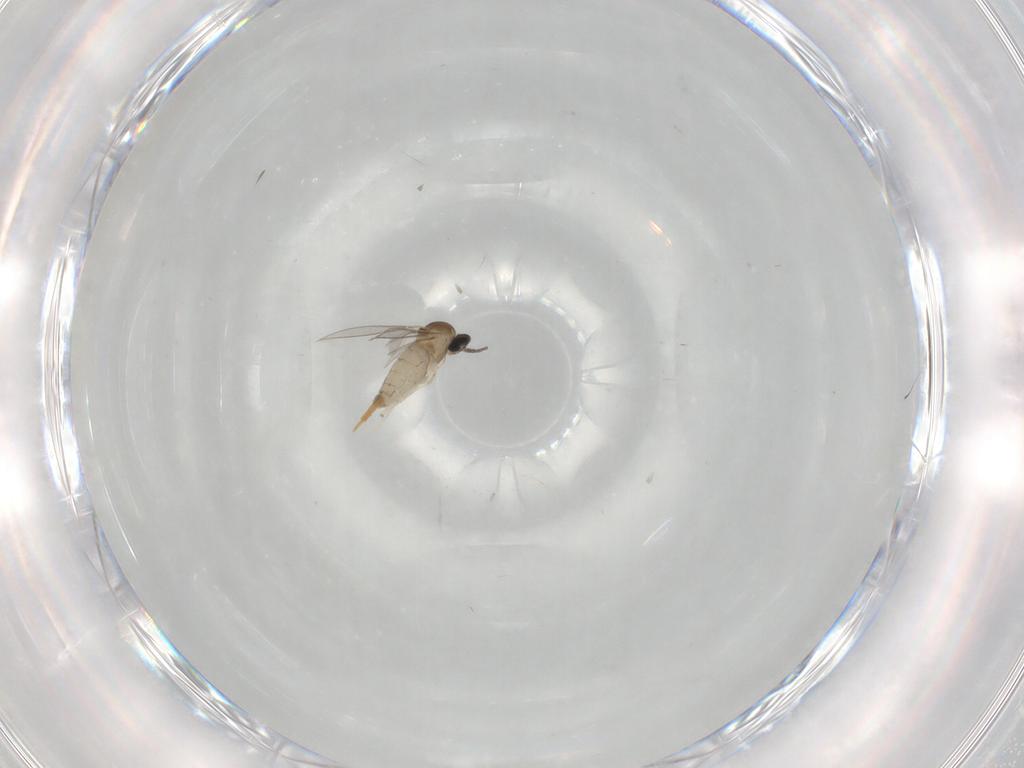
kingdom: Animalia
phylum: Arthropoda
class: Insecta
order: Diptera
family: Cecidomyiidae
